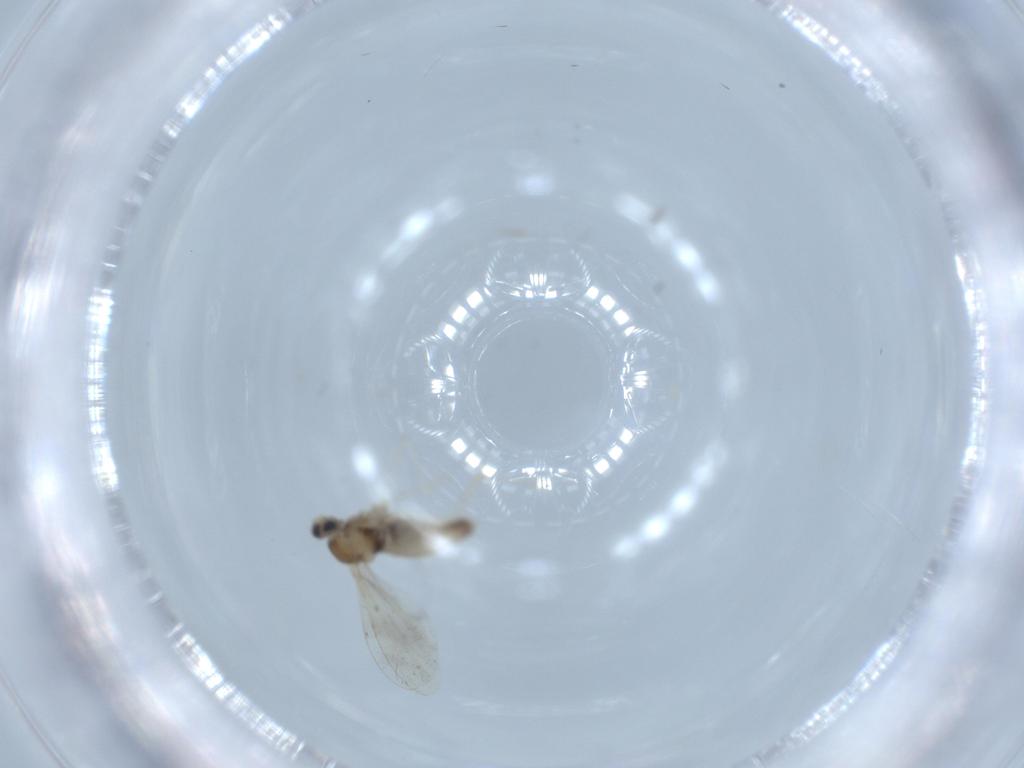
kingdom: Animalia
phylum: Arthropoda
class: Insecta
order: Diptera
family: Cecidomyiidae
